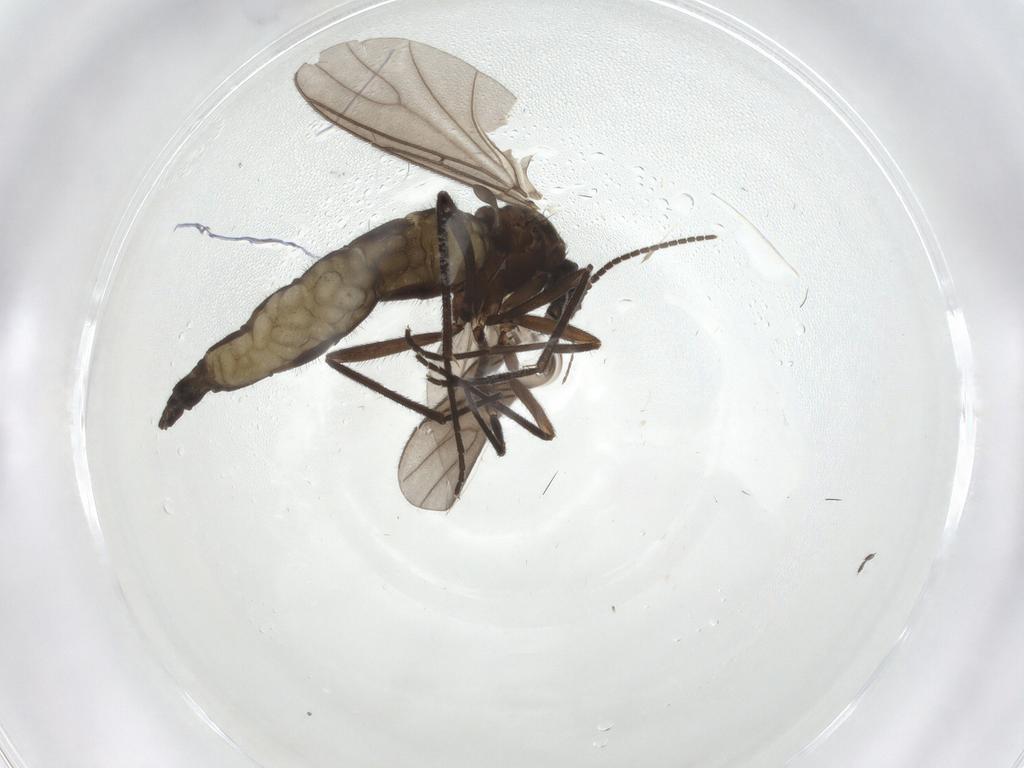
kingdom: Animalia
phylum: Arthropoda
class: Insecta
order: Diptera
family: Sciaridae
